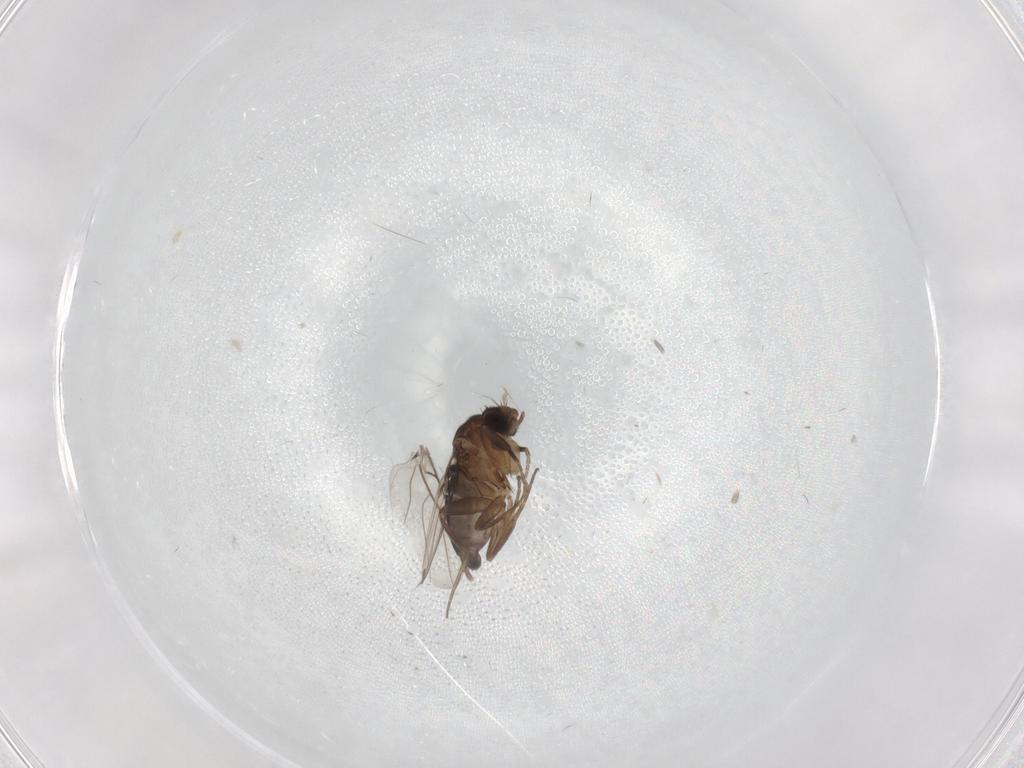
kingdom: Animalia
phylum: Arthropoda
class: Insecta
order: Diptera
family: Phoridae
